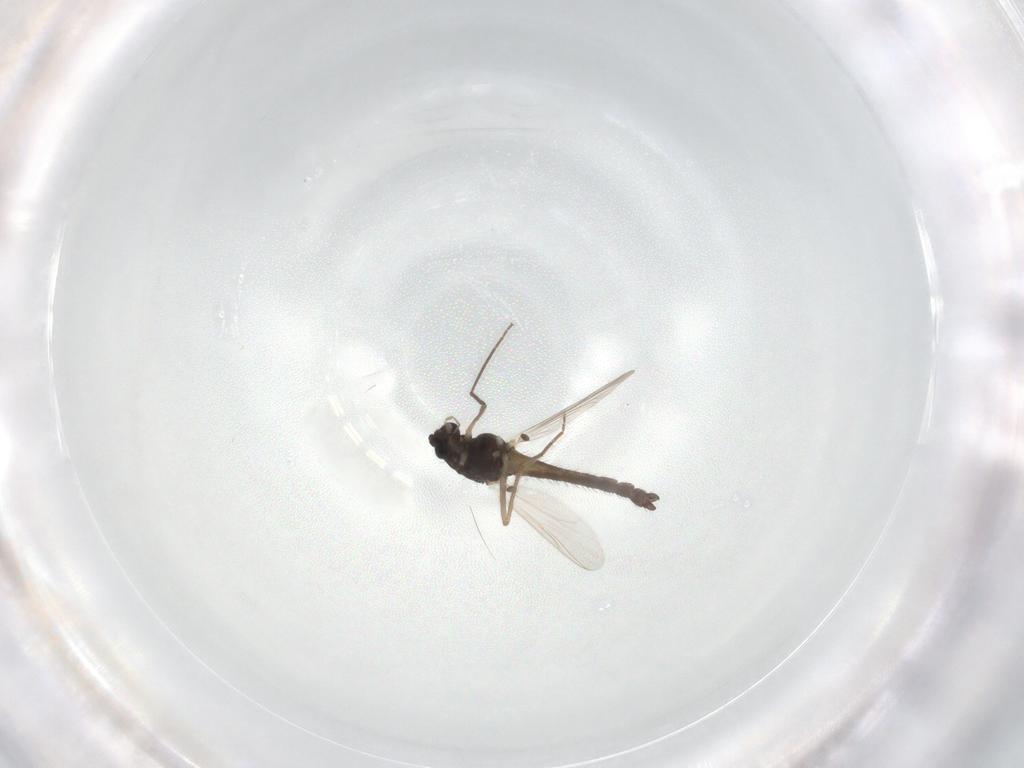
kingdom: Animalia
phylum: Arthropoda
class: Insecta
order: Diptera
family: Chironomidae
